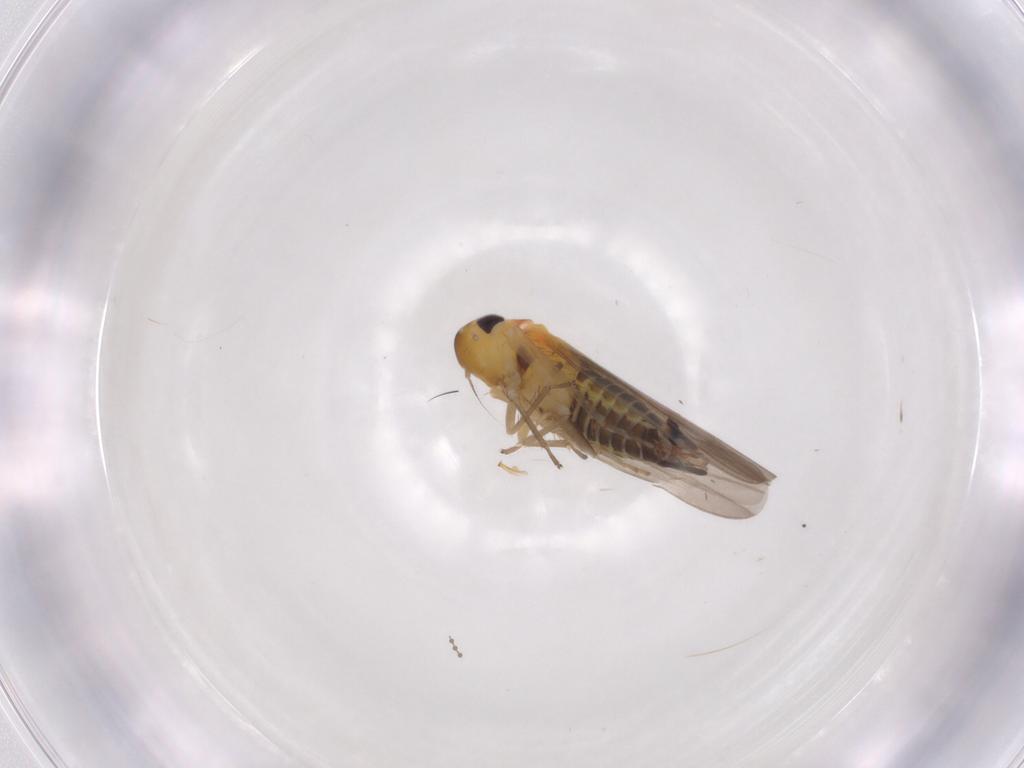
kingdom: Animalia
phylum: Arthropoda
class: Insecta
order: Hemiptera
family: Cicadellidae
